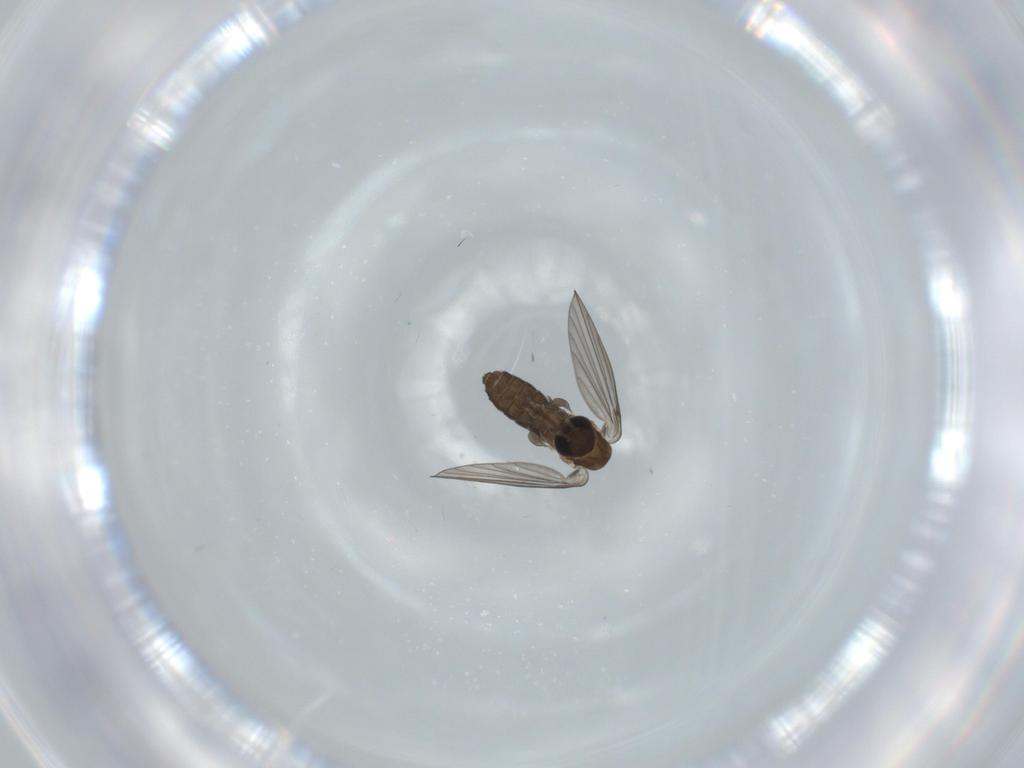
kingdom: Animalia
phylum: Arthropoda
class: Insecta
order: Diptera
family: Psychodidae
